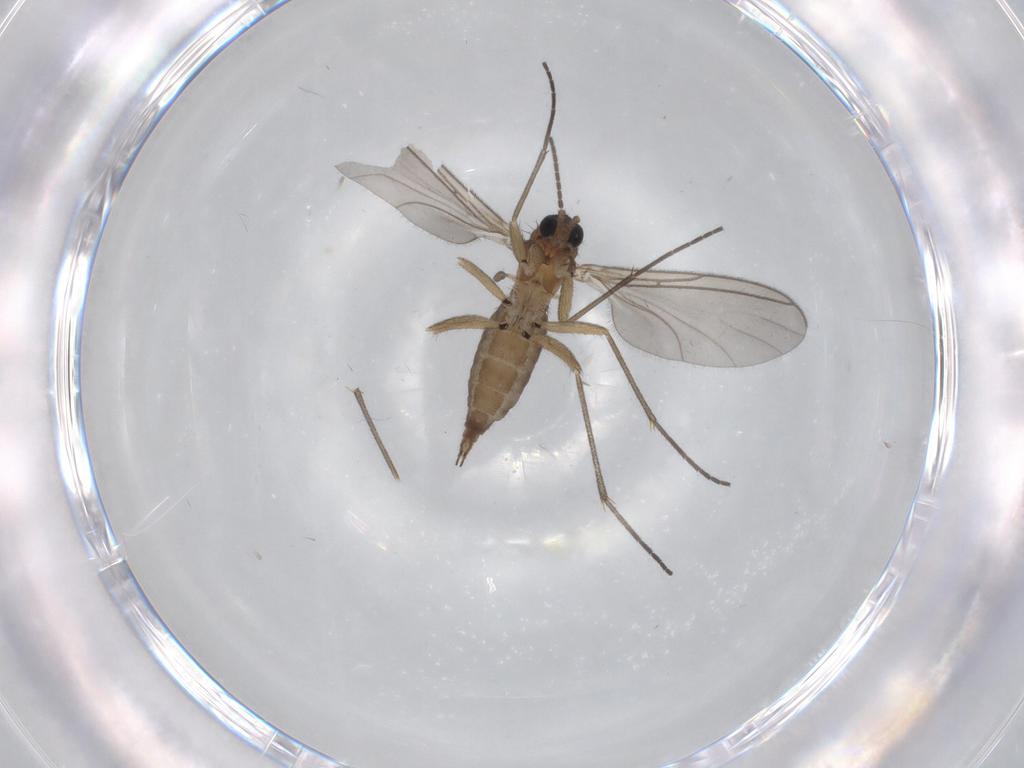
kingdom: Animalia
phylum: Arthropoda
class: Insecta
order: Diptera
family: Sciaridae
